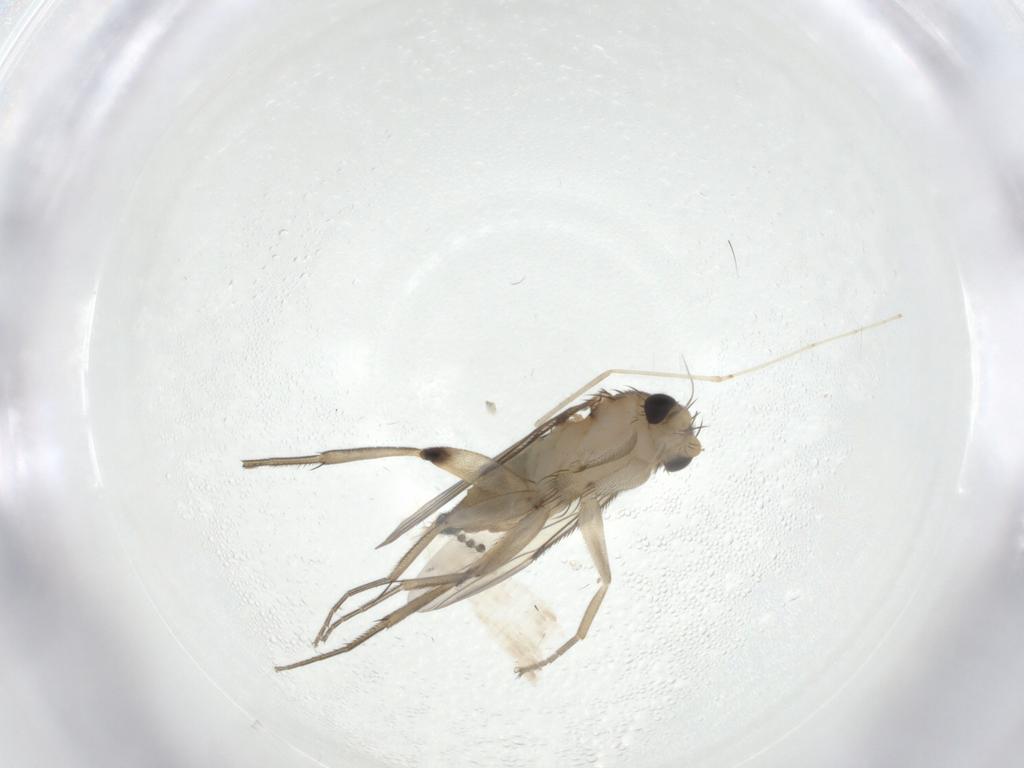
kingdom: Animalia
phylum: Arthropoda
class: Insecta
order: Diptera
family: Phoridae
